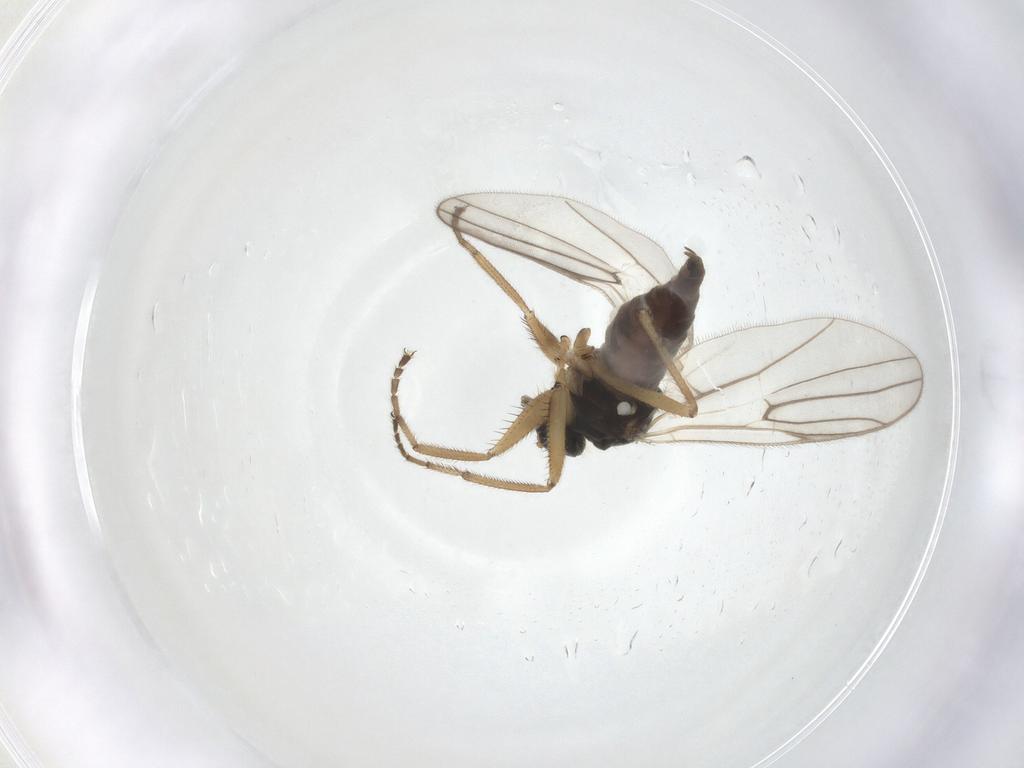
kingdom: Animalia
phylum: Arthropoda
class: Insecta
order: Diptera
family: Hybotidae
